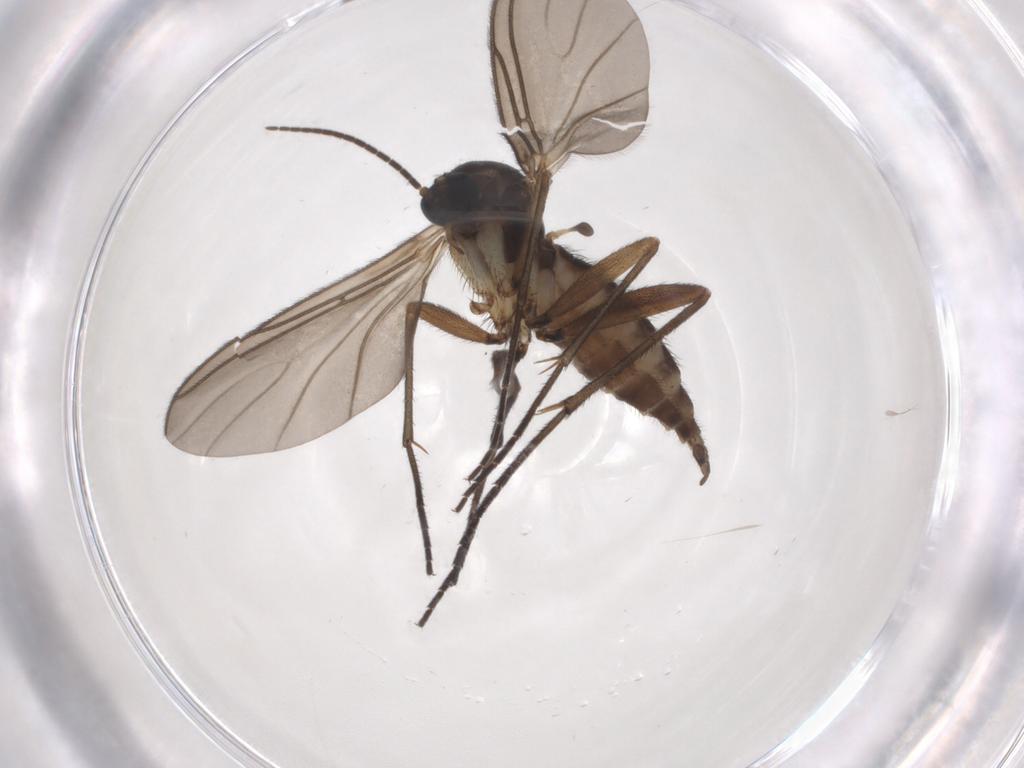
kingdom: Animalia
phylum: Arthropoda
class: Insecta
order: Diptera
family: Sciaridae
